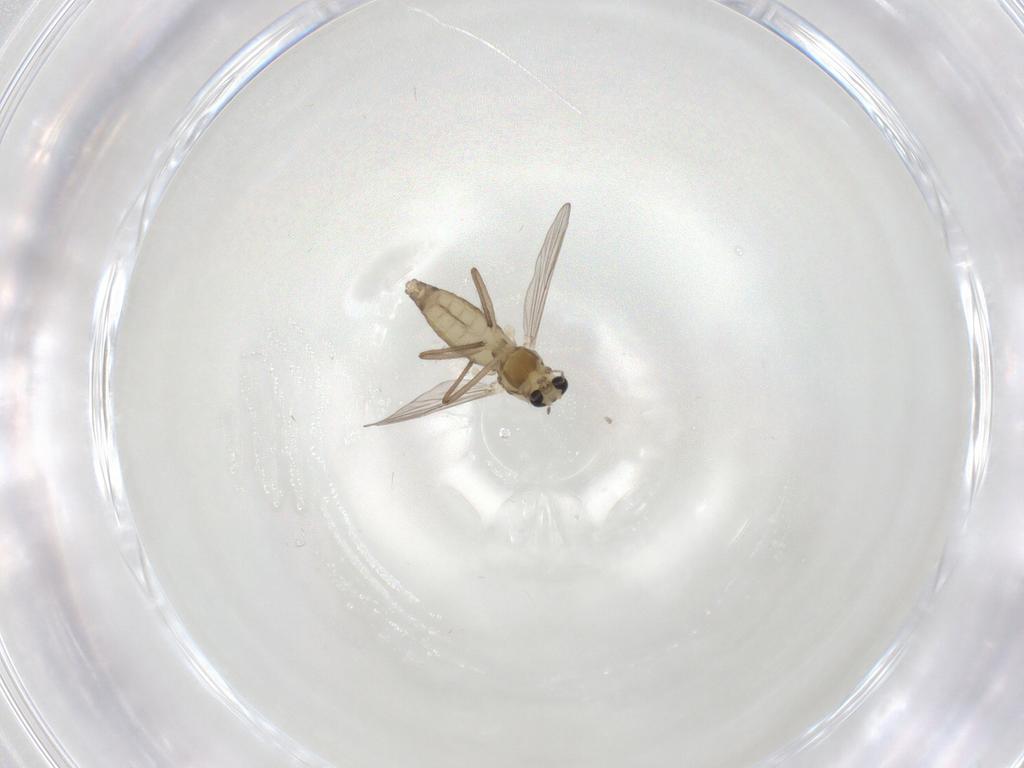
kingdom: Animalia
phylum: Arthropoda
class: Insecta
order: Diptera
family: Chironomidae
